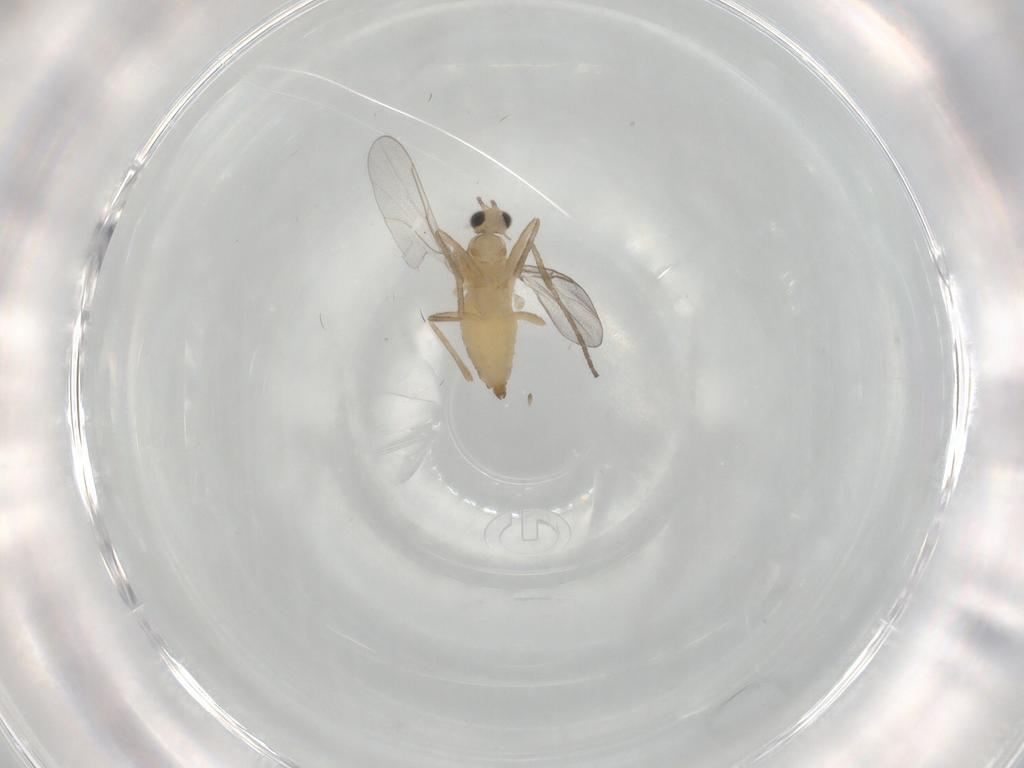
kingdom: Animalia
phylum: Arthropoda
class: Insecta
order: Diptera
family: Cecidomyiidae
